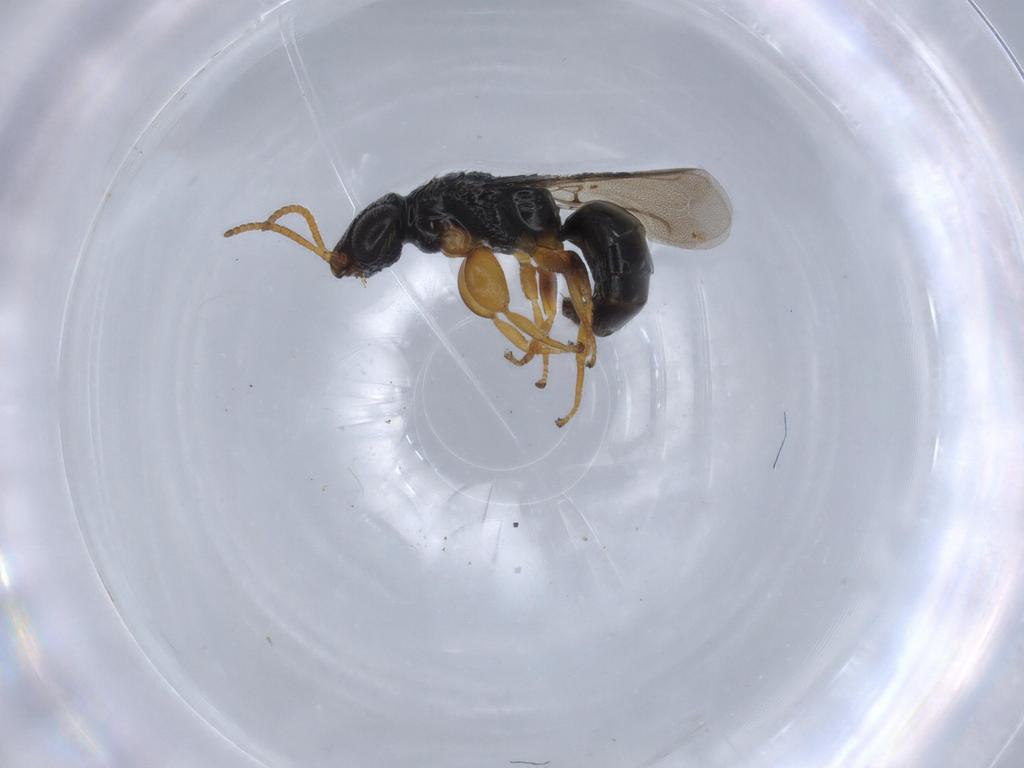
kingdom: Animalia
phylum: Arthropoda
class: Insecta
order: Hymenoptera
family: Bethylidae
